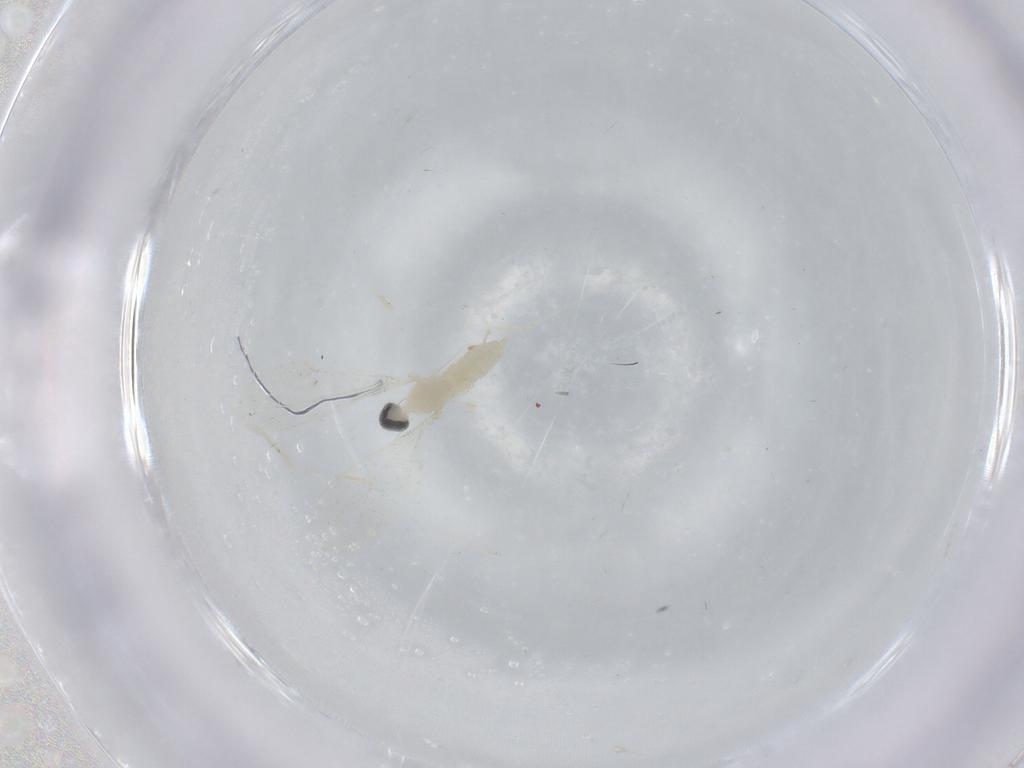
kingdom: Animalia
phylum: Arthropoda
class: Insecta
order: Diptera
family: Cecidomyiidae
